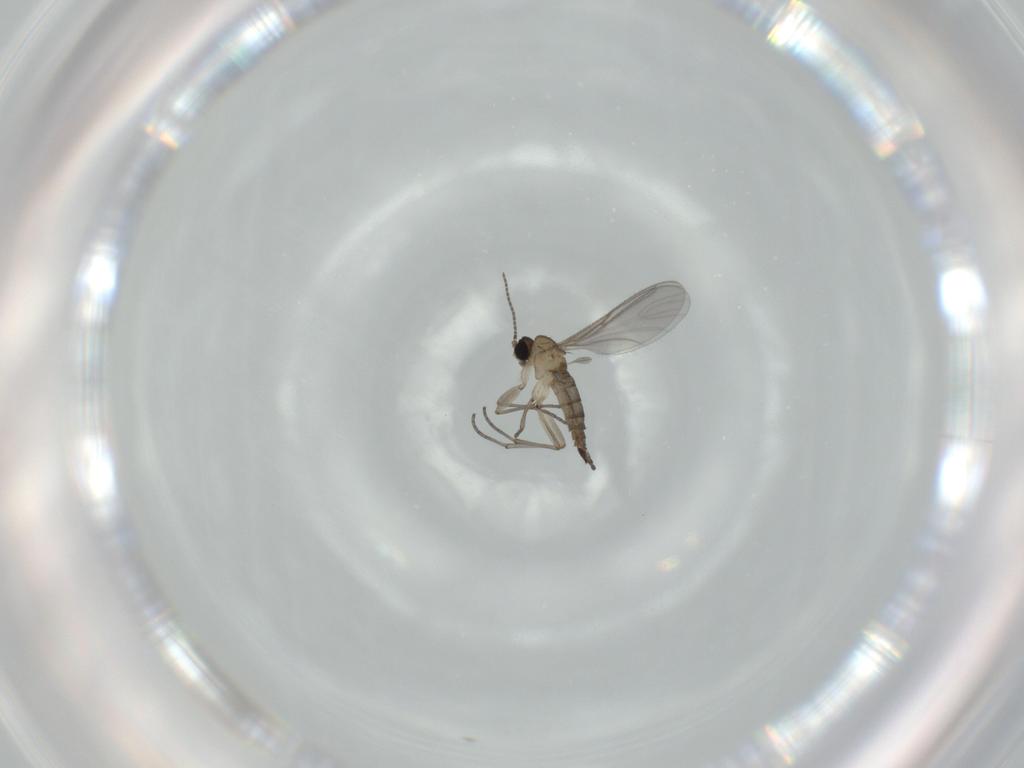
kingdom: Animalia
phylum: Arthropoda
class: Insecta
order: Diptera
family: Sciaridae
